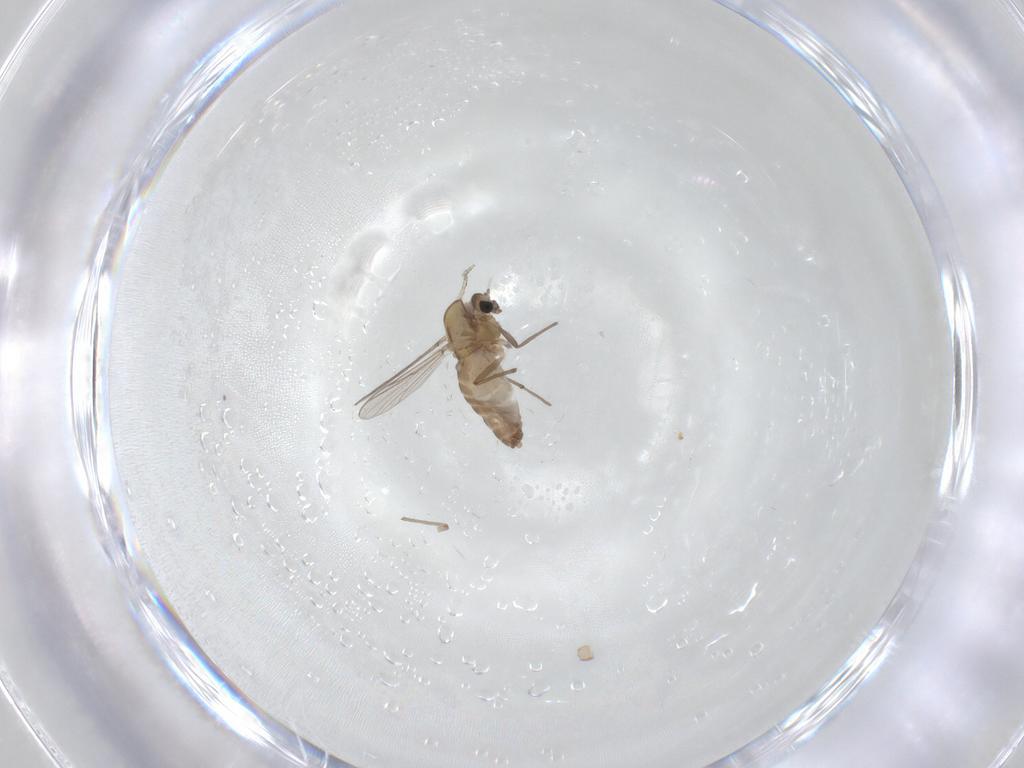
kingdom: Animalia
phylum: Arthropoda
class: Insecta
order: Diptera
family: Chironomidae
